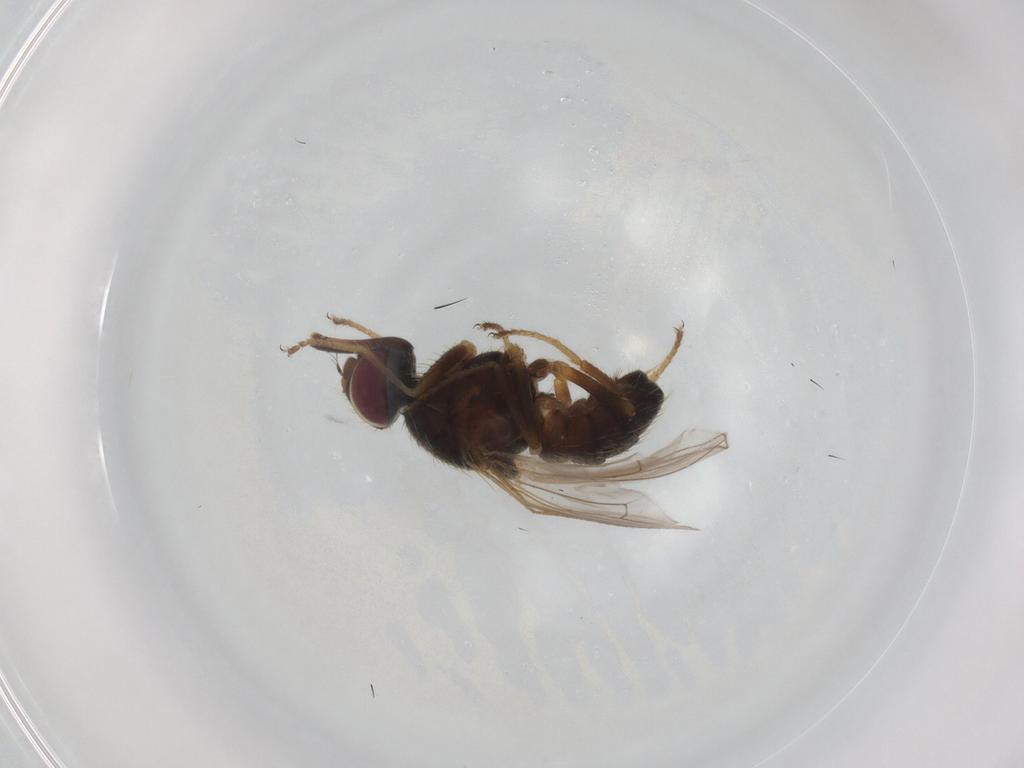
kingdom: Animalia
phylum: Arthropoda
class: Insecta
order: Diptera
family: Muscidae
